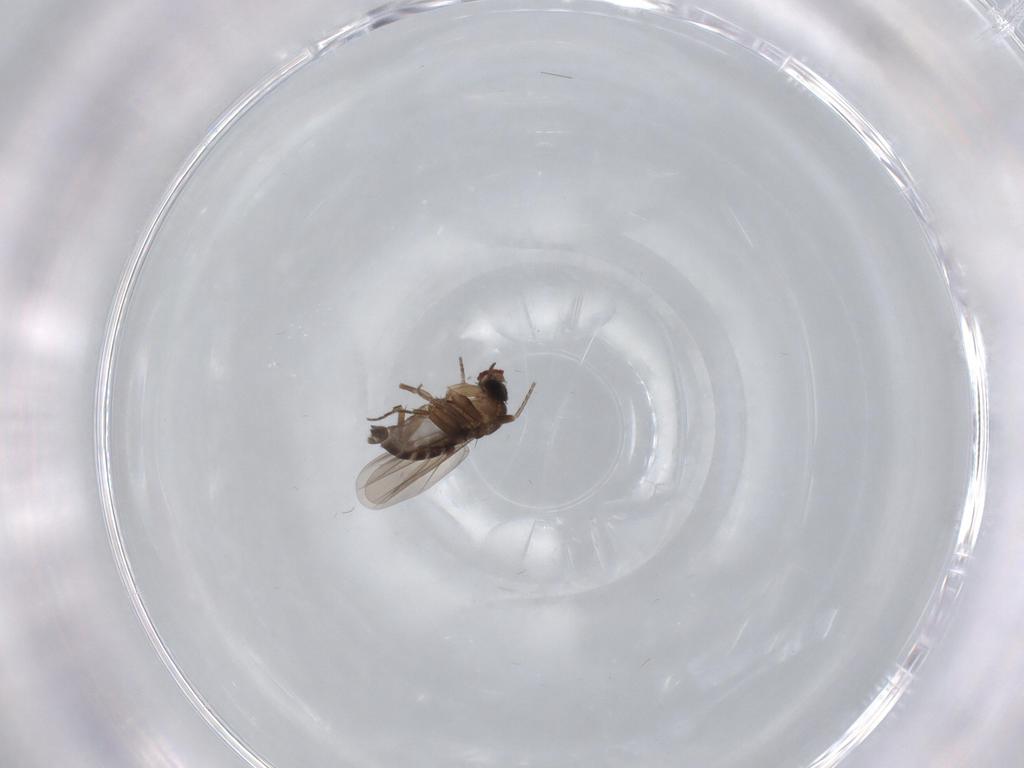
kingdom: Animalia
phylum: Arthropoda
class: Insecta
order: Diptera
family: Phoridae
